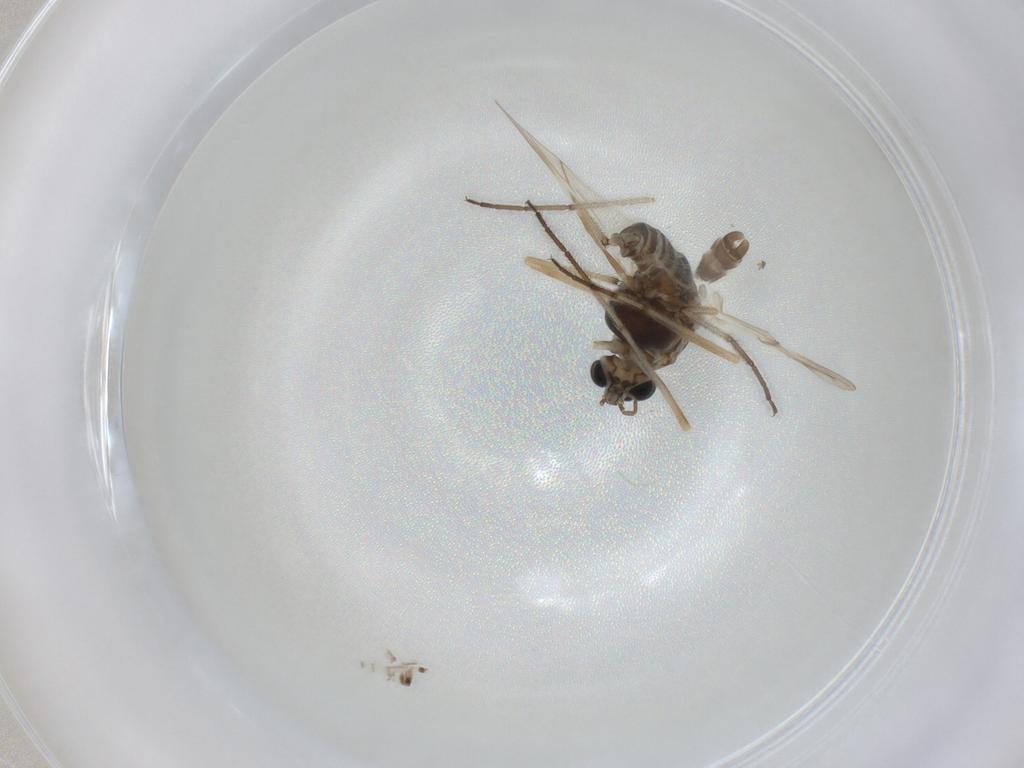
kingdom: Animalia
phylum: Arthropoda
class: Insecta
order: Diptera
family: Chironomidae
